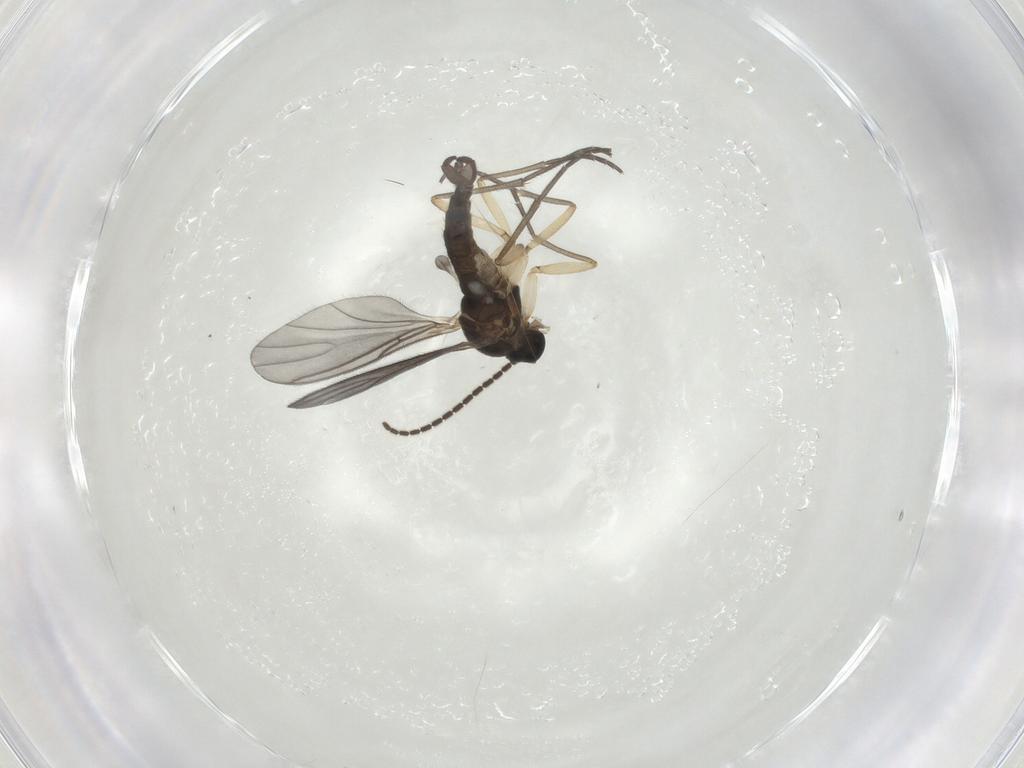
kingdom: Animalia
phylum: Arthropoda
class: Insecta
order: Diptera
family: Sciaridae
